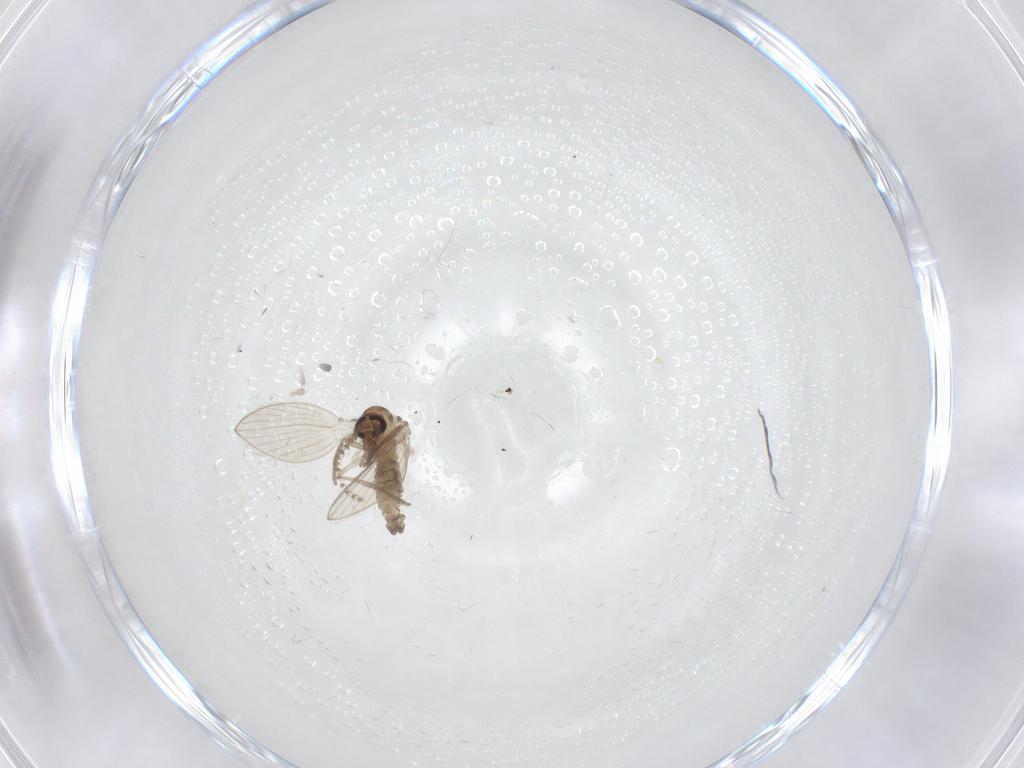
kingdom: Animalia
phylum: Arthropoda
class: Insecta
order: Diptera
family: Psychodidae
